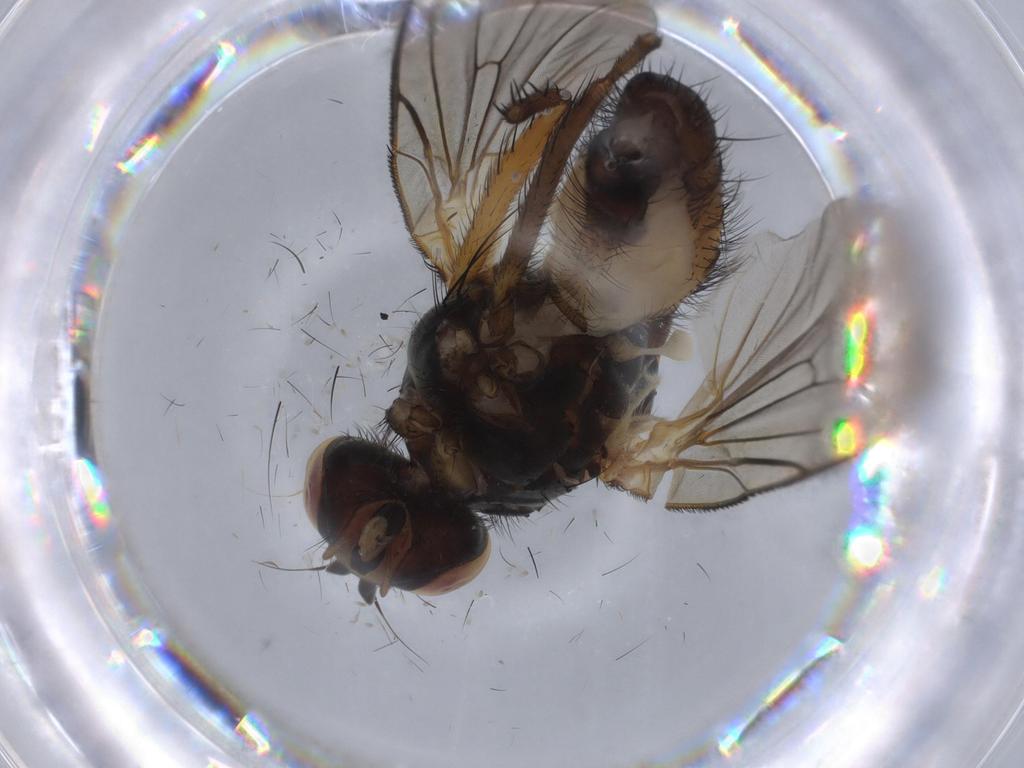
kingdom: Animalia
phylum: Arthropoda
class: Insecta
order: Diptera
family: Anthomyiidae
